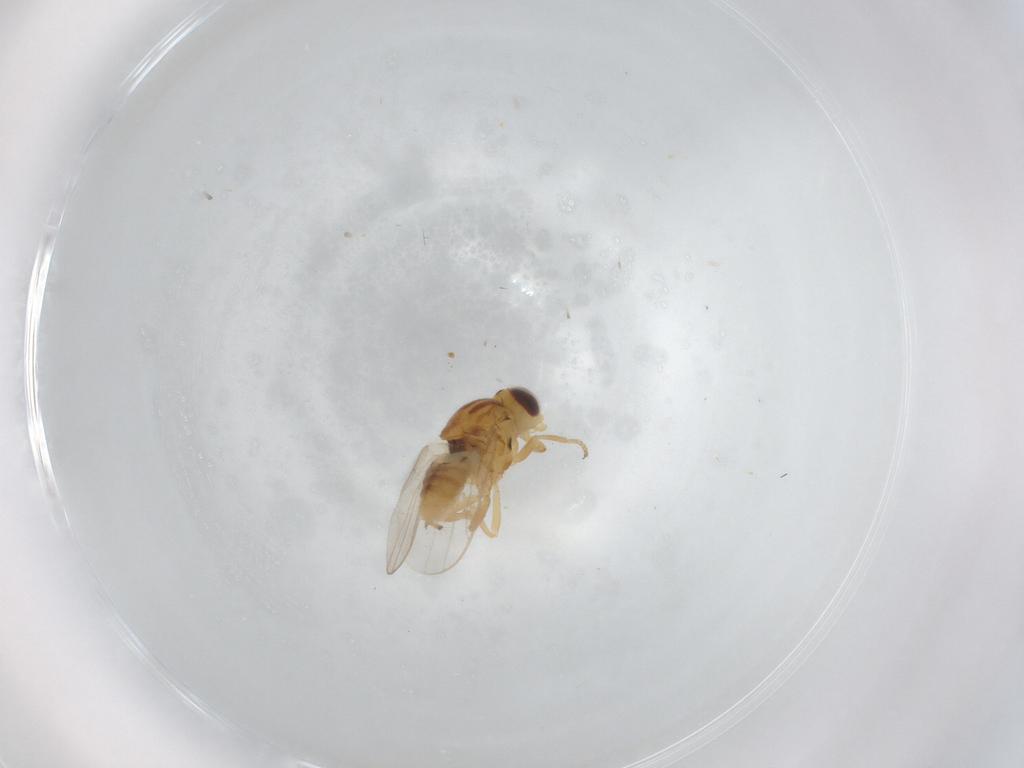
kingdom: Animalia
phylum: Arthropoda
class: Insecta
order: Diptera
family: Chloropidae
